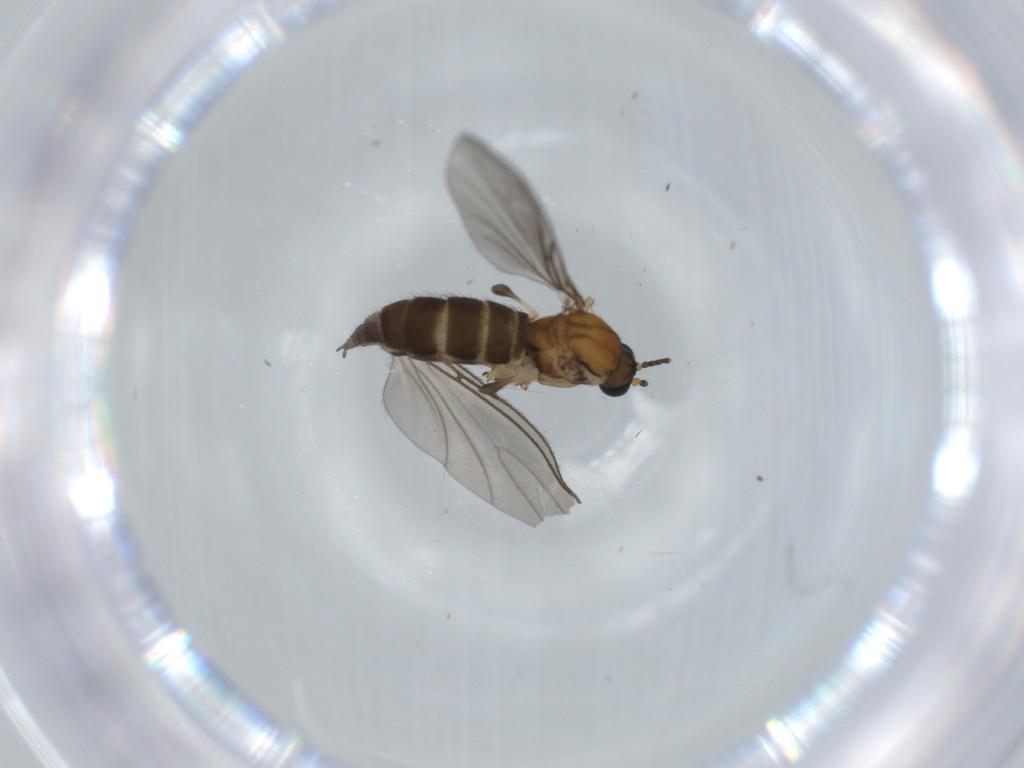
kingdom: Animalia
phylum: Arthropoda
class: Insecta
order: Diptera
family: Sciaridae
